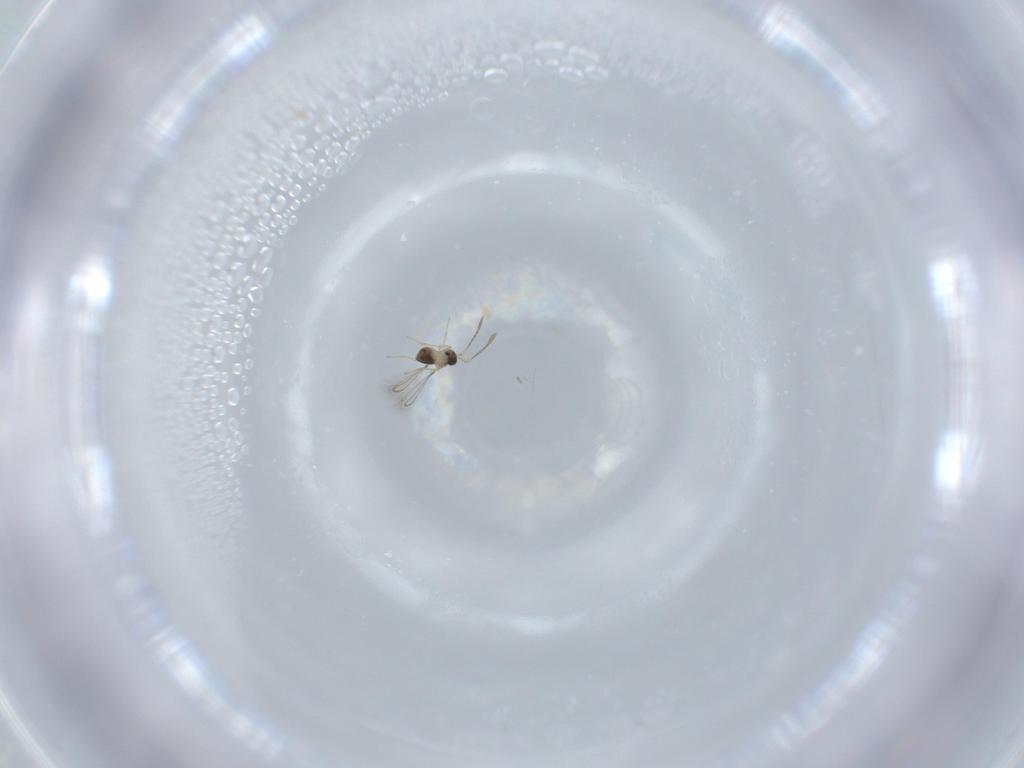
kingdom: Animalia
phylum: Arthropoda
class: Insecta
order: Hymenoptera
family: Mymaridae
